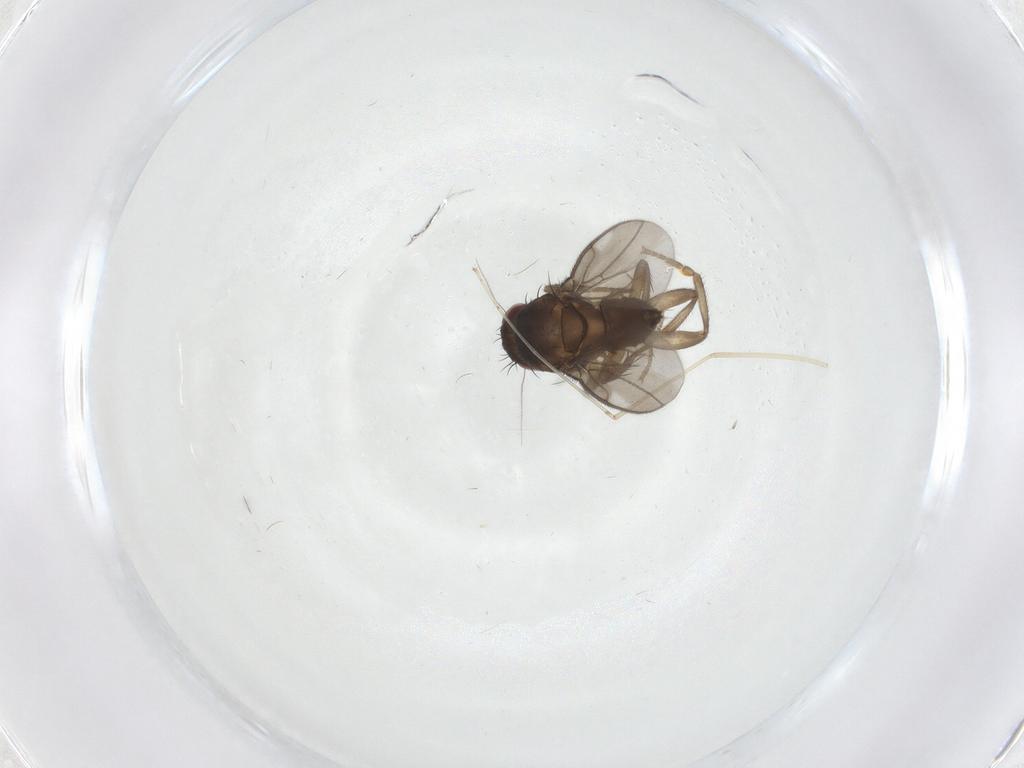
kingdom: Animalia
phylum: Arthropoda
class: Insecta
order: Diptera
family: Cecidomyiidae
